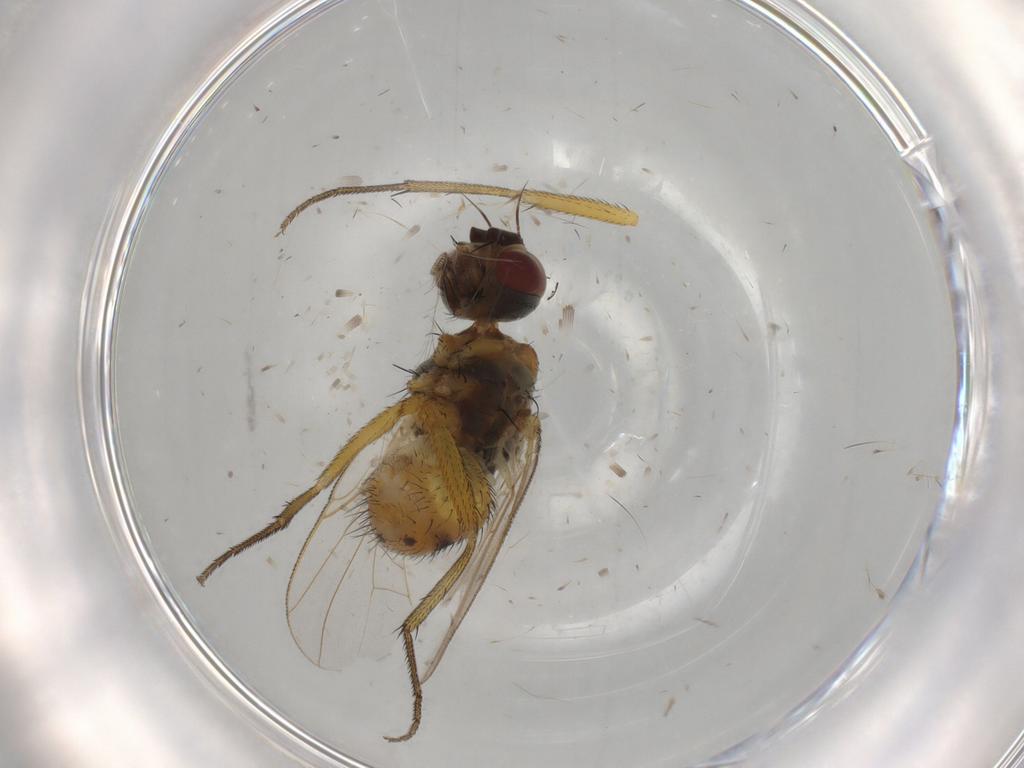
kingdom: Animalia
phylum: Arthropoda
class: Insecta
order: Diptera
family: Muscidae
